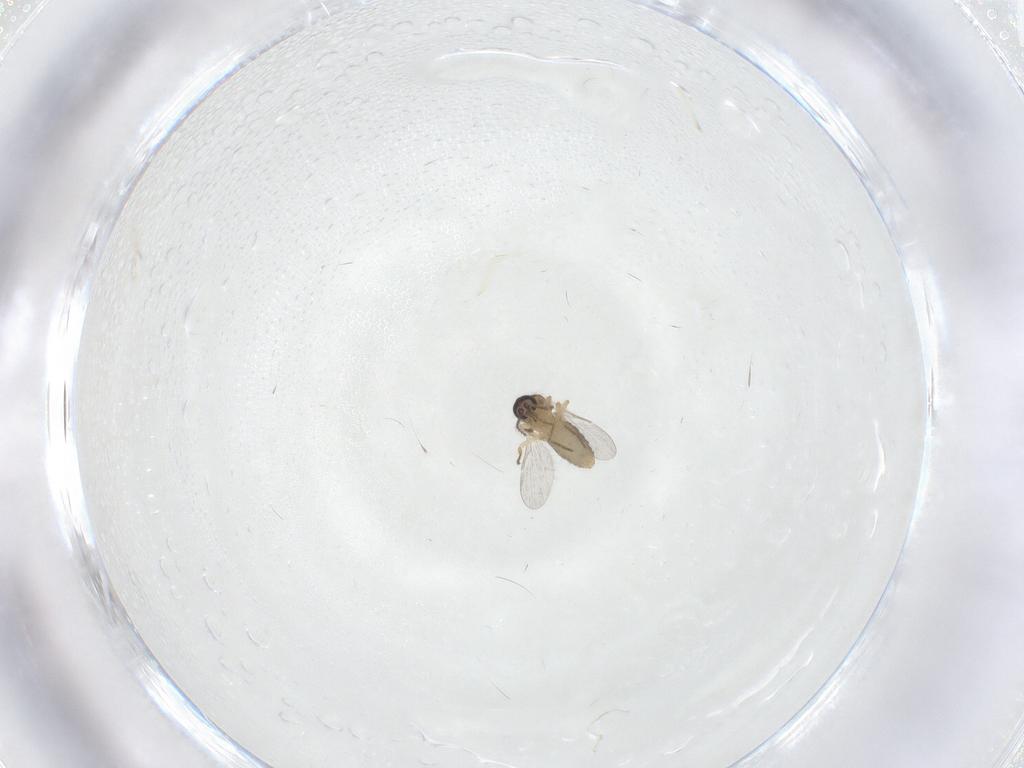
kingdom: Animalia
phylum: Arthropoda
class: Insecta
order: Diptera
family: Ceratopogonidae
